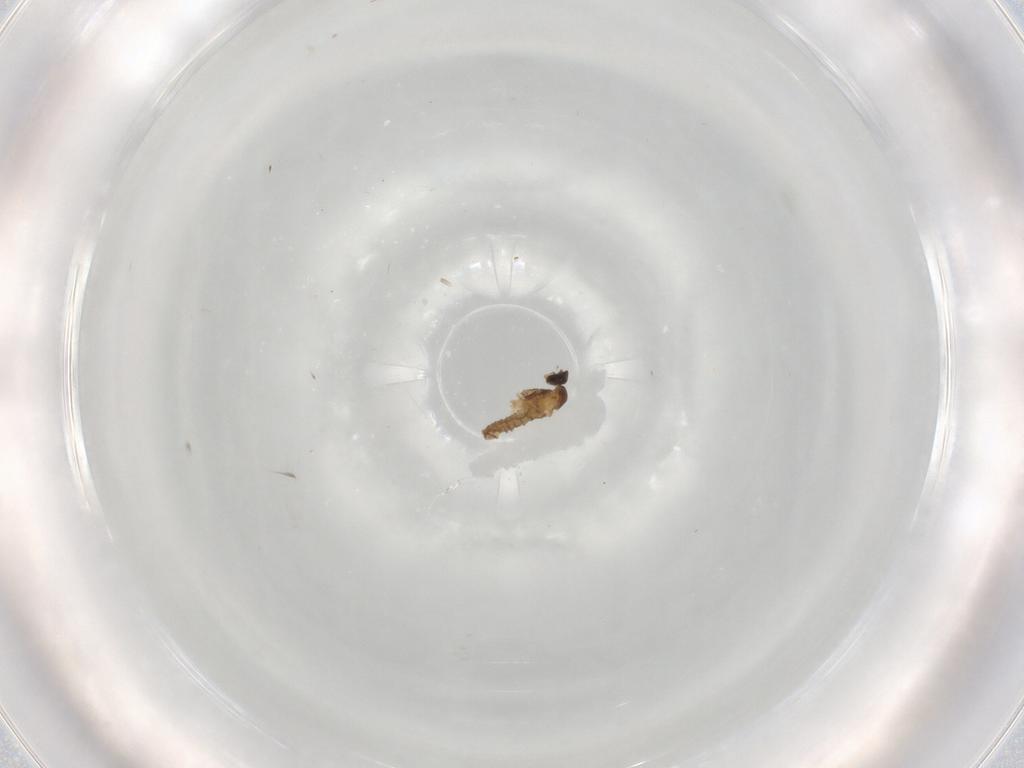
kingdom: Animalia
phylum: Arthropoda
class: Insecta
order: Diptera
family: Cecidomyiidae
